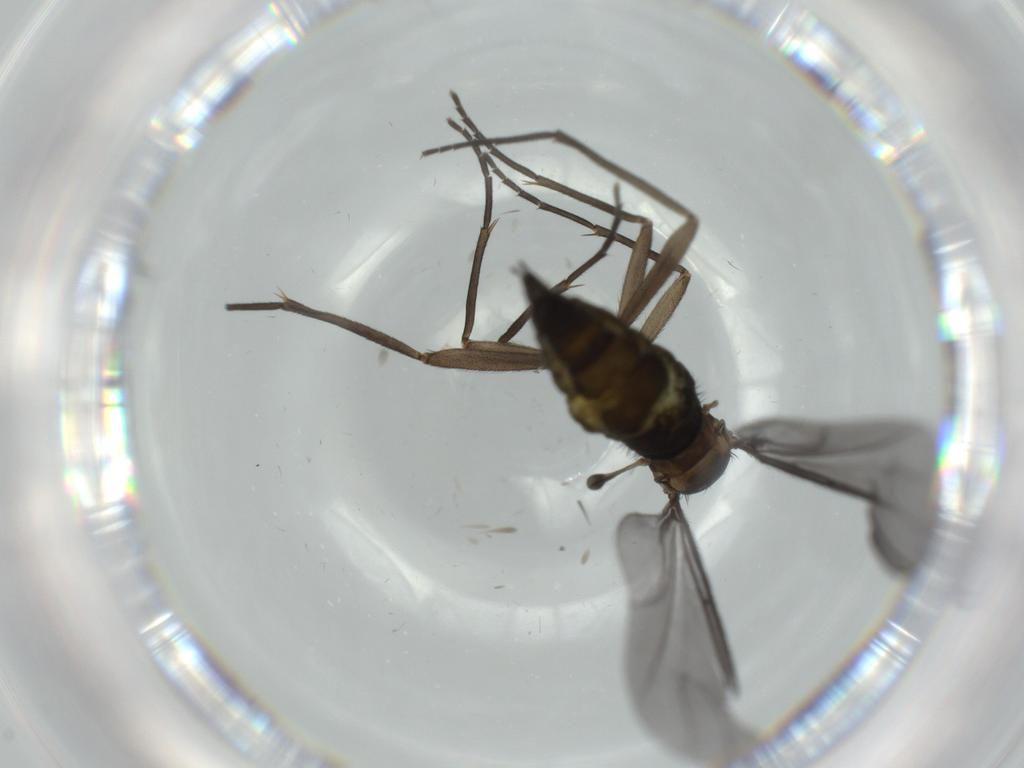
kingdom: Animalia
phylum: Arthropoda
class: Insecta
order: Diptera
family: Sciaridae
